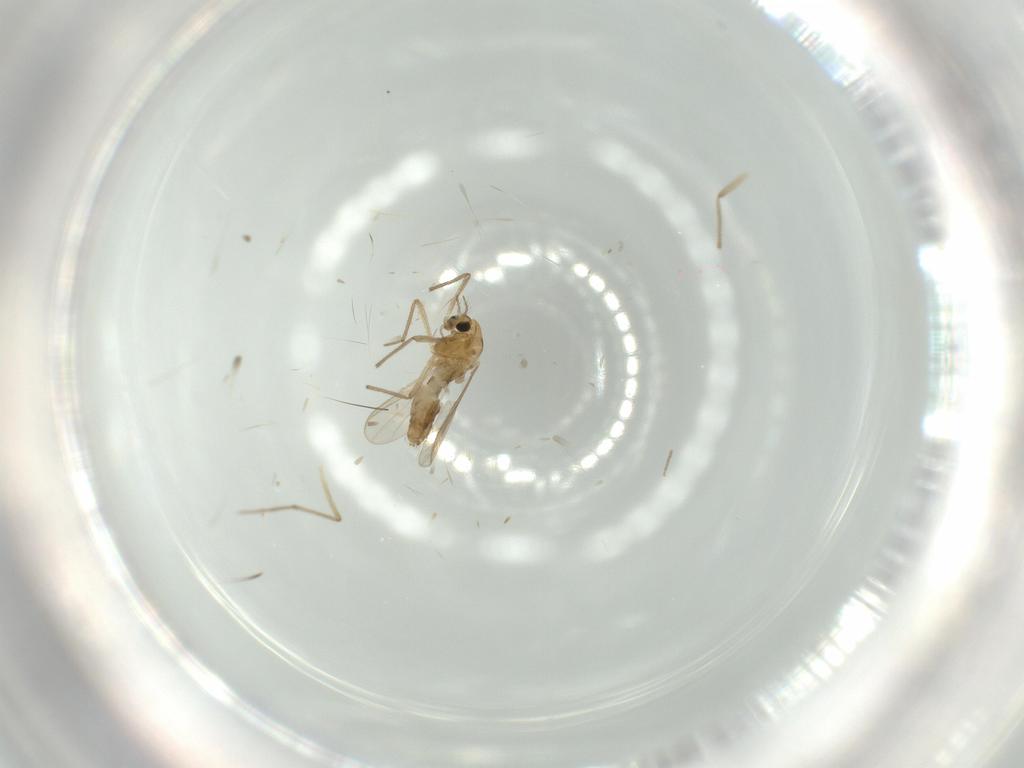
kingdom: Animalia
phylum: Arthropoda
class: Insecta
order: Diptera
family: Chironomidae
